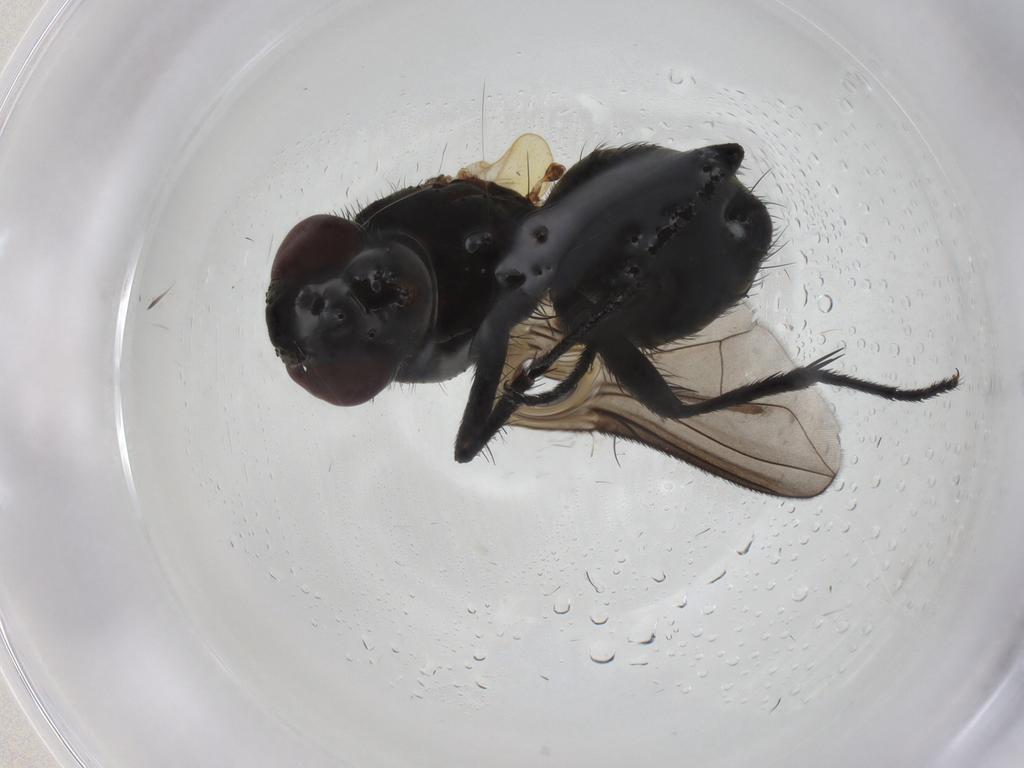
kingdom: Animalia
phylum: Arthropoda
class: Insecta
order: Diptera
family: Tachinidae
